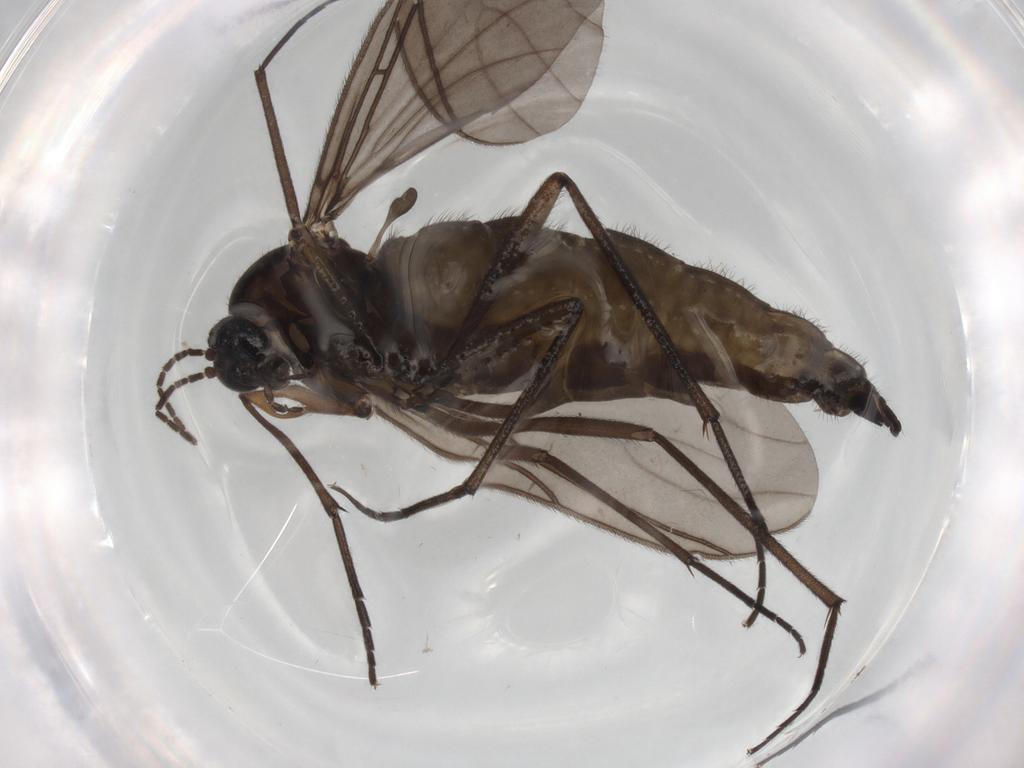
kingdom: Animalia
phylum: Arthropoda
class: Insecta
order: Diptera
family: Sciaridae
